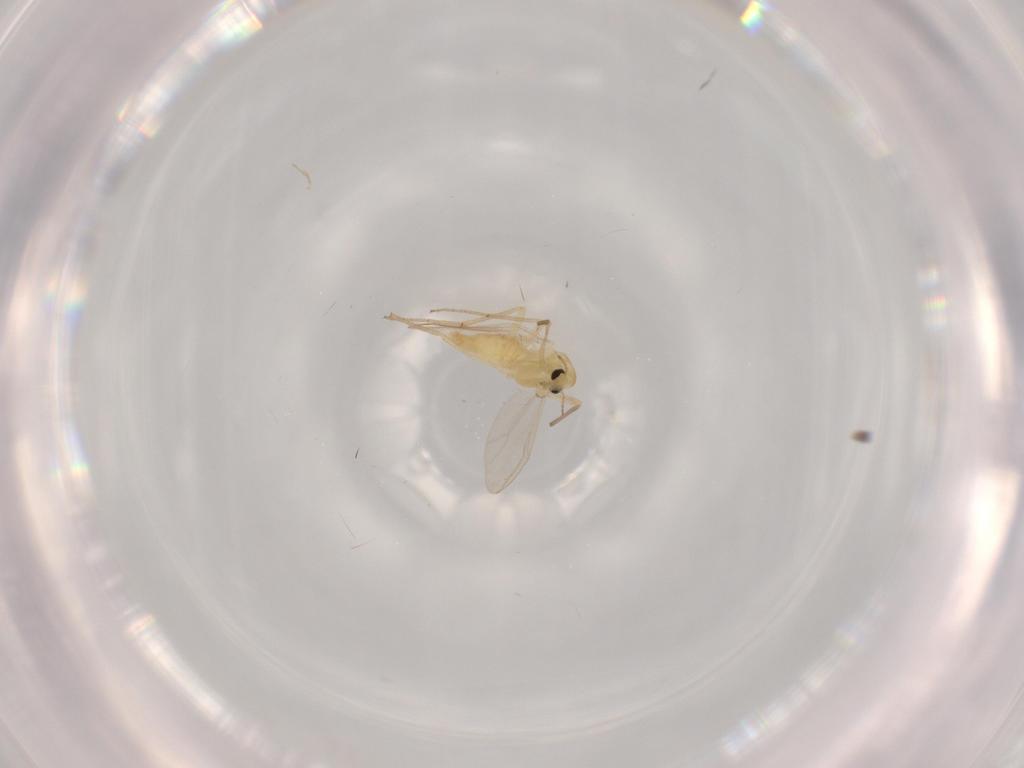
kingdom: Animalia
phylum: Arthropoda
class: Insecta
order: Diptera
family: Chironomidae
